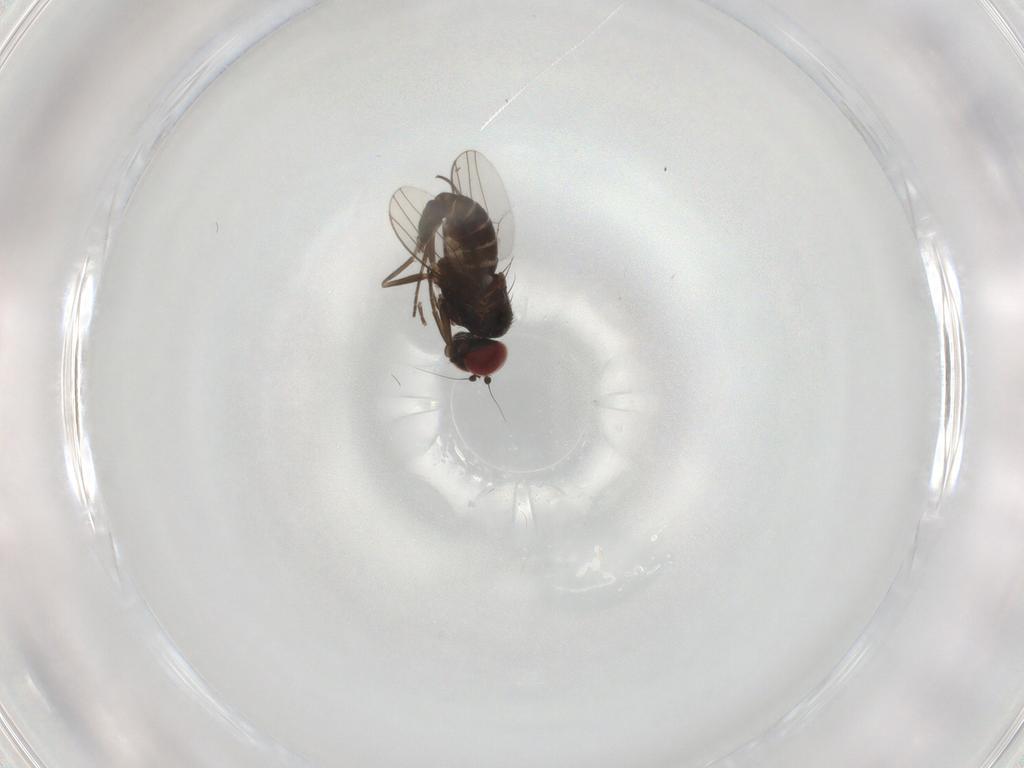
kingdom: Animalia
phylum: Arthropoda
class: Insecta
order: Diptera
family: Dolichopodidae
